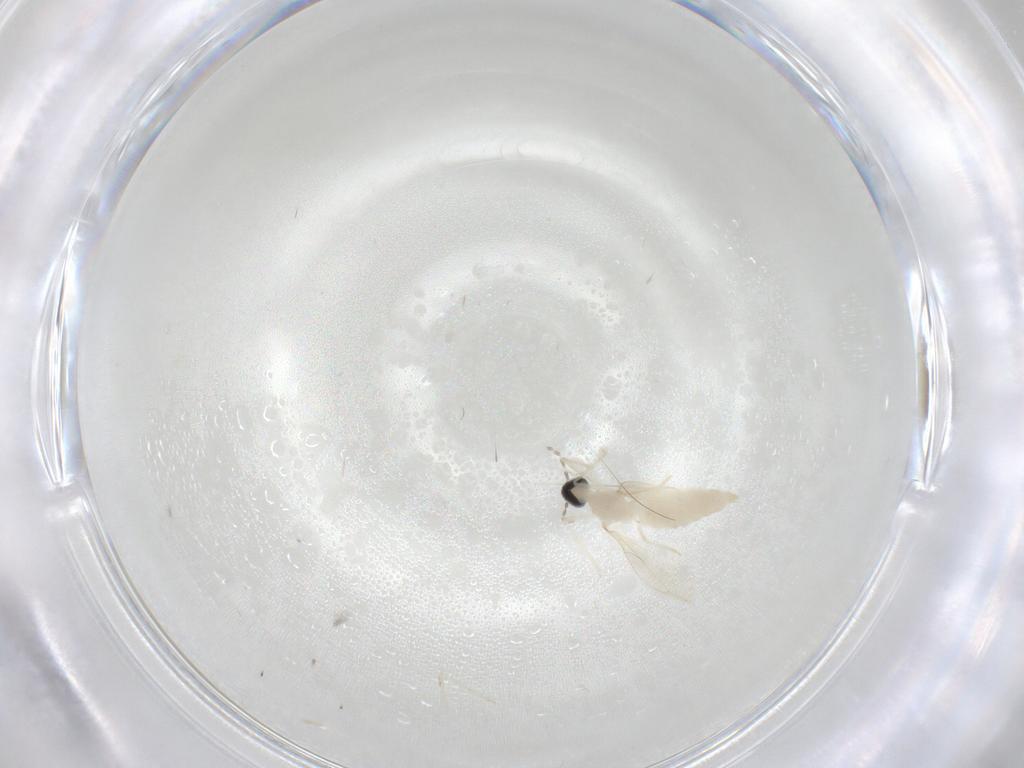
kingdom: Animalia
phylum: Arthropoda
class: Insecta
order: Diptera
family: Cecidomyiidae
